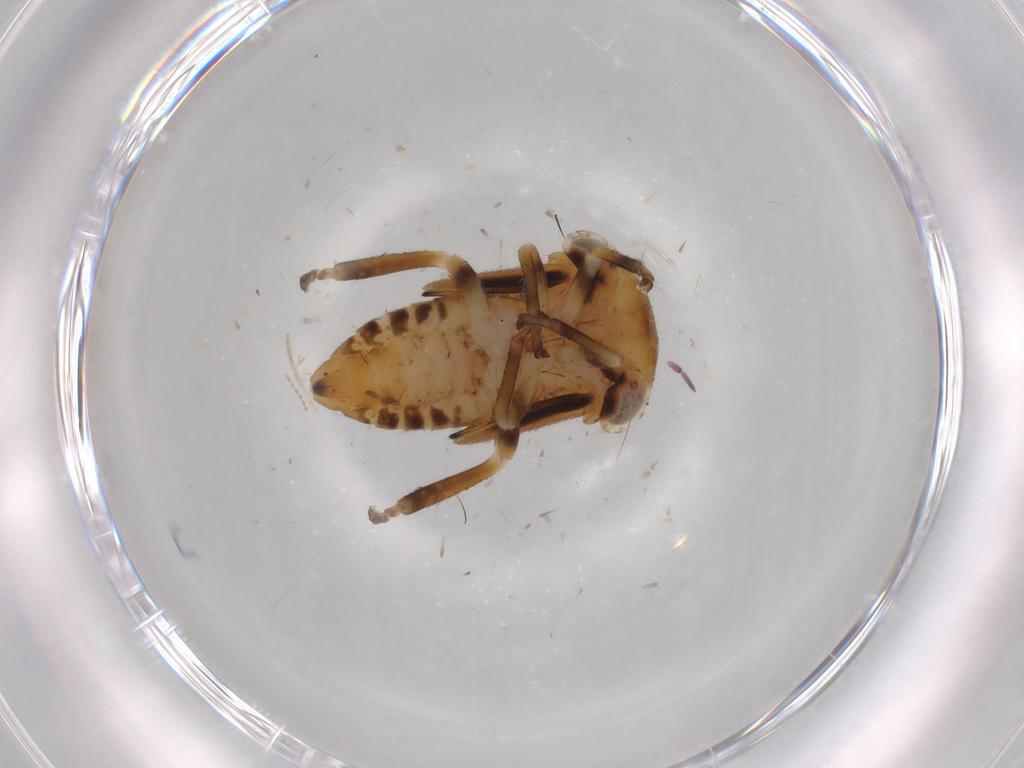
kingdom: Animalia
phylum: Arthropoda
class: Insecta
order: Hemiptera
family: Cicadellidae
